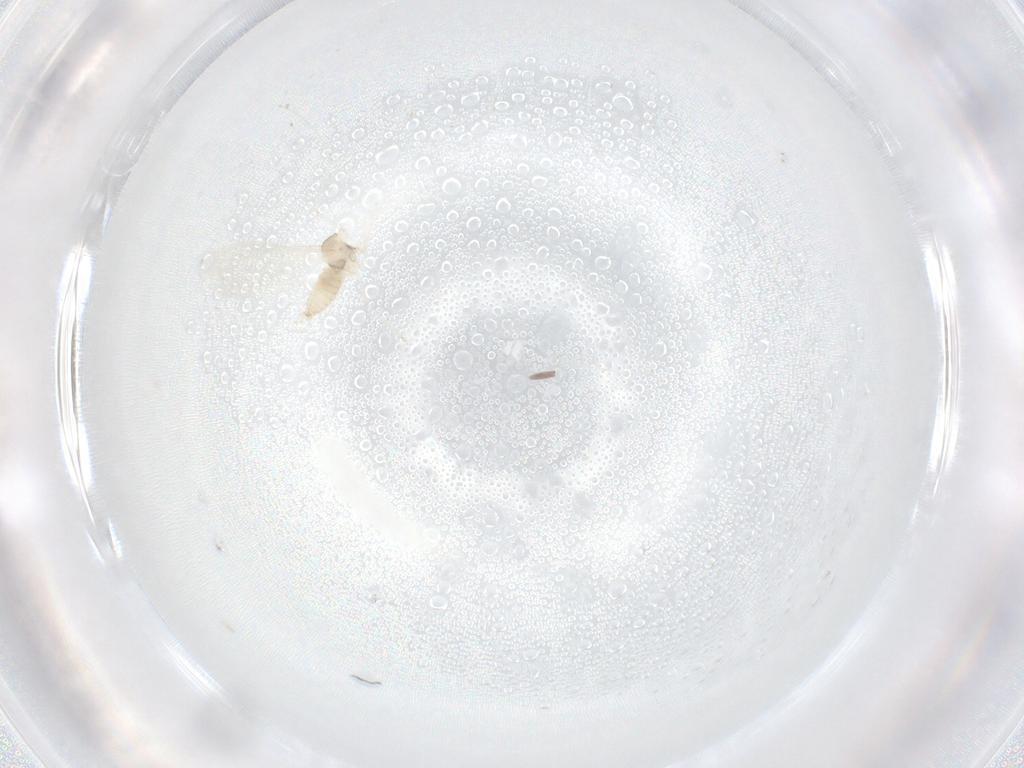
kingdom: Animalia
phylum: Arthropoda
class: Insecta
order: Diptera
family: Cecidomyiidae
